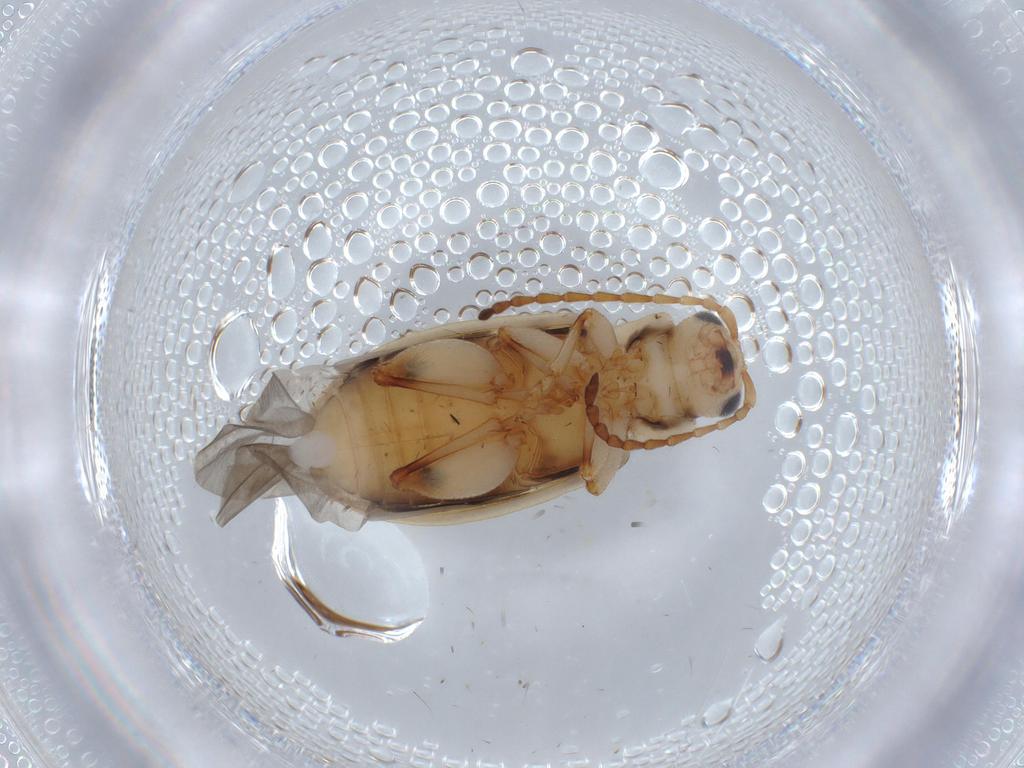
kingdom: Animalia
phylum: Arthropoda
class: Insecta
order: Coleoptera
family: Chrysomelidae
